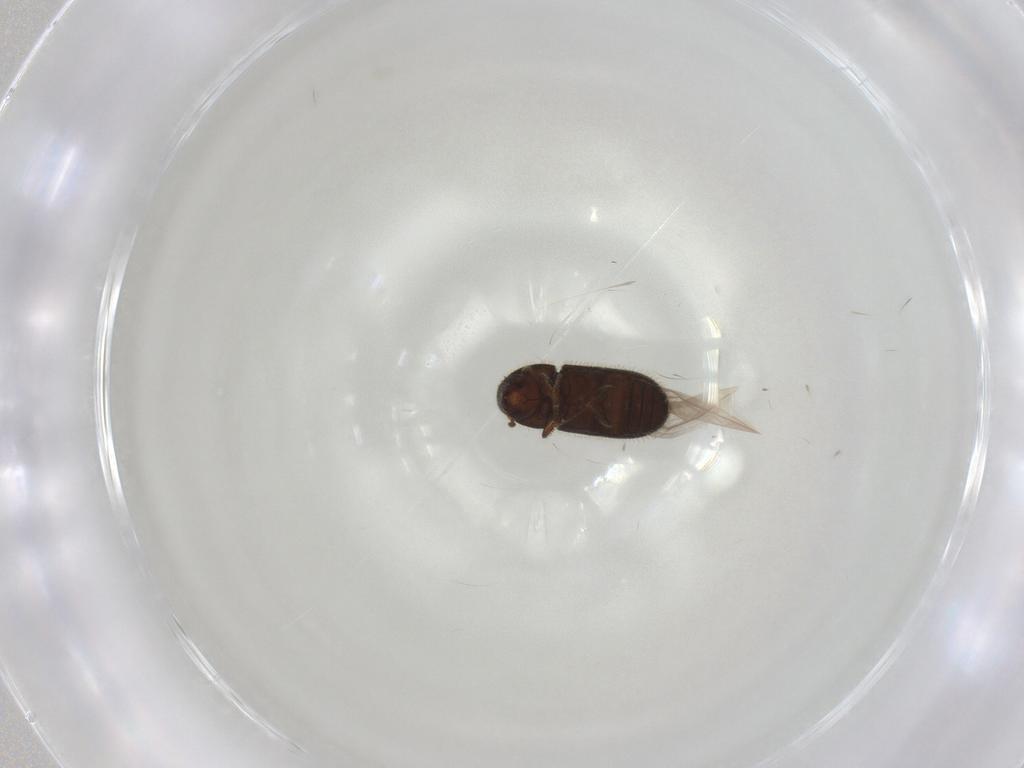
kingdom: Animalia
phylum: Arthropoda
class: Insecta
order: Coleoptera
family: Curculionidae
